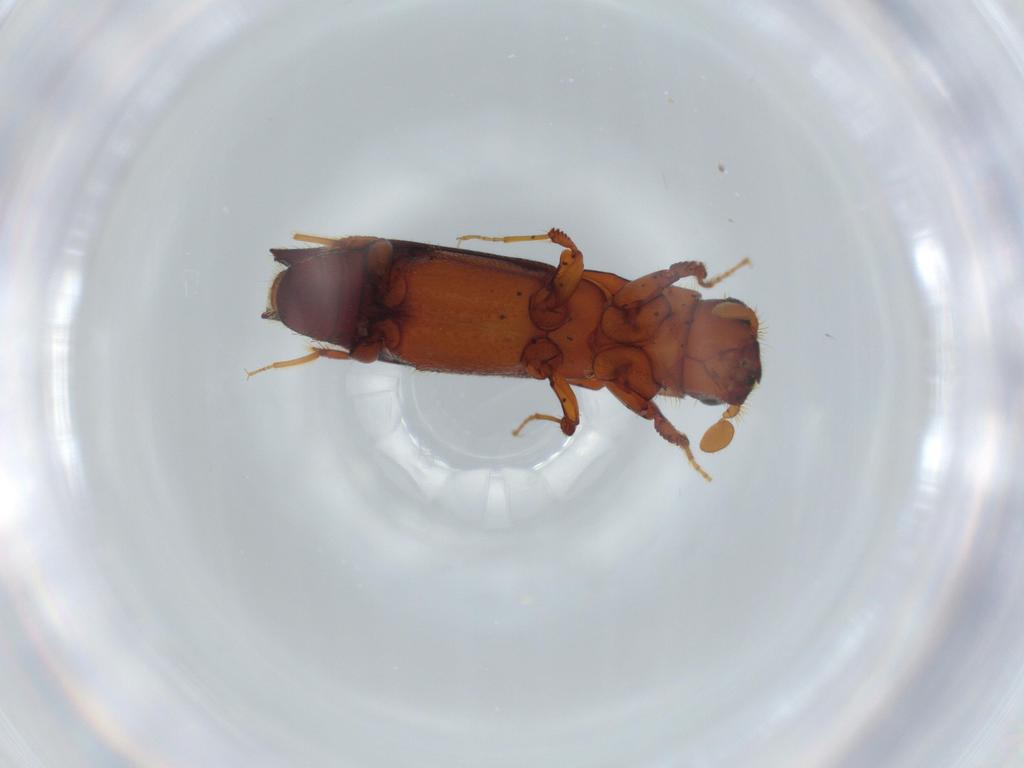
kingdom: Animalia
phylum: Arthropoda
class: Insecta
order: Coleoptera
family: Curculionidae
